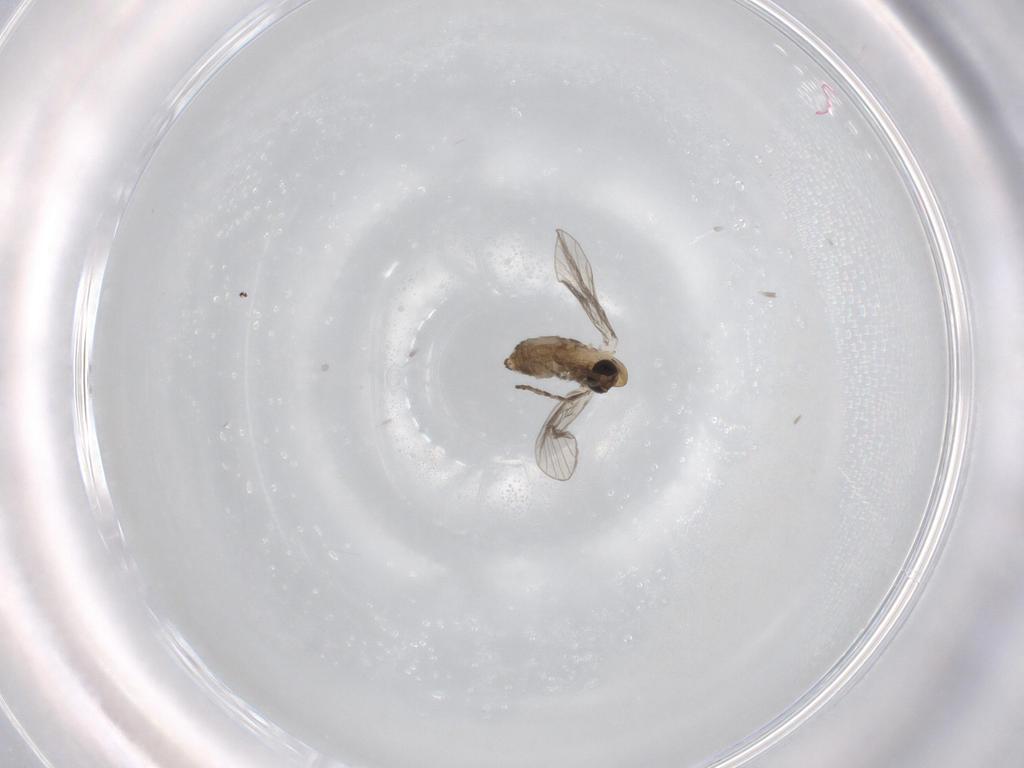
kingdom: Animalia
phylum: Arthropoda
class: Insecta
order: Diptera
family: Psychodidae
